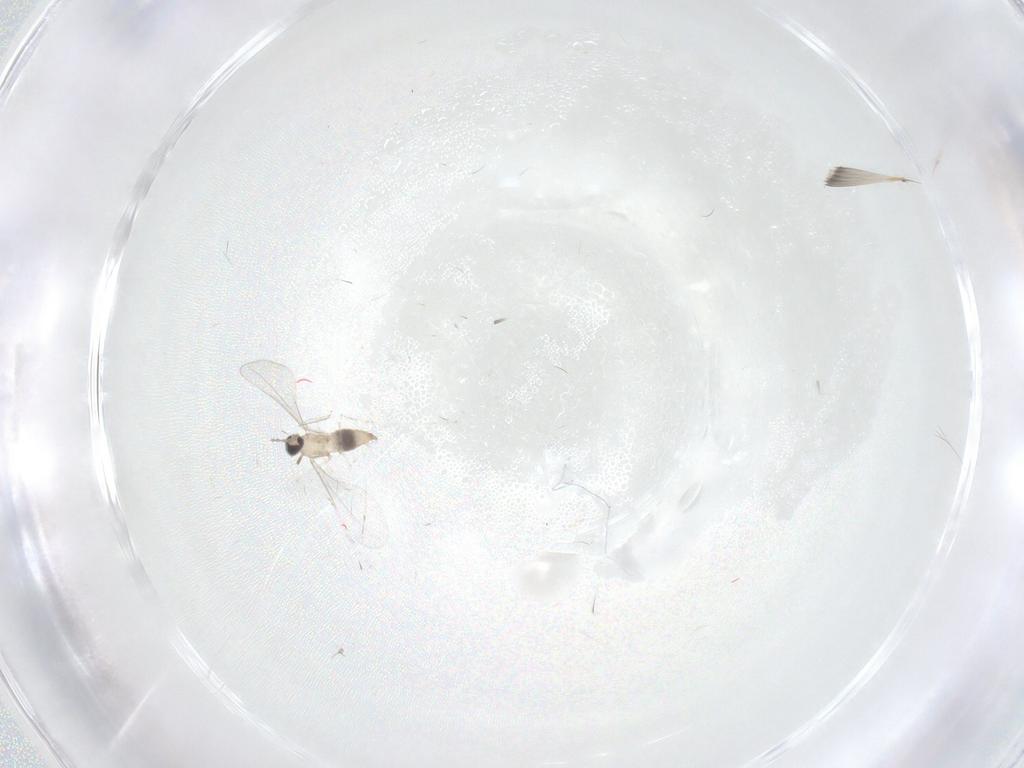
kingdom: Animalia
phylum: Arthropoda
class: Insecta
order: Diptera
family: Cecidomyiidae
